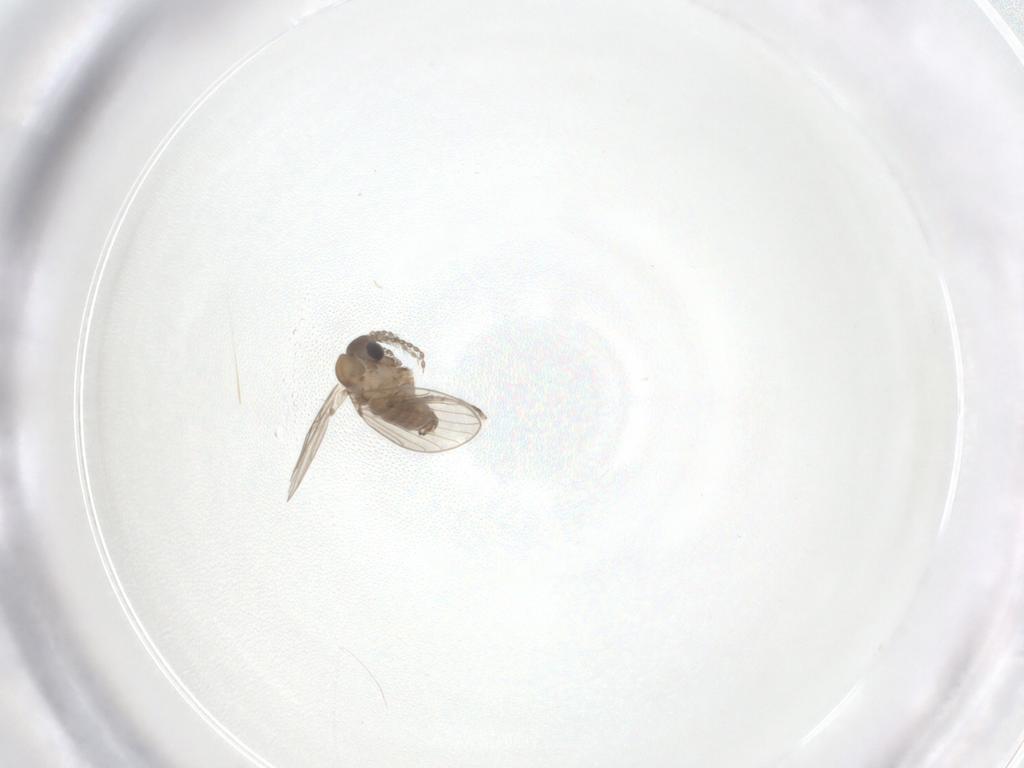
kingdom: Animalia
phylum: Arthropoda
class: Insecta
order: Diptera
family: Psychodidae
